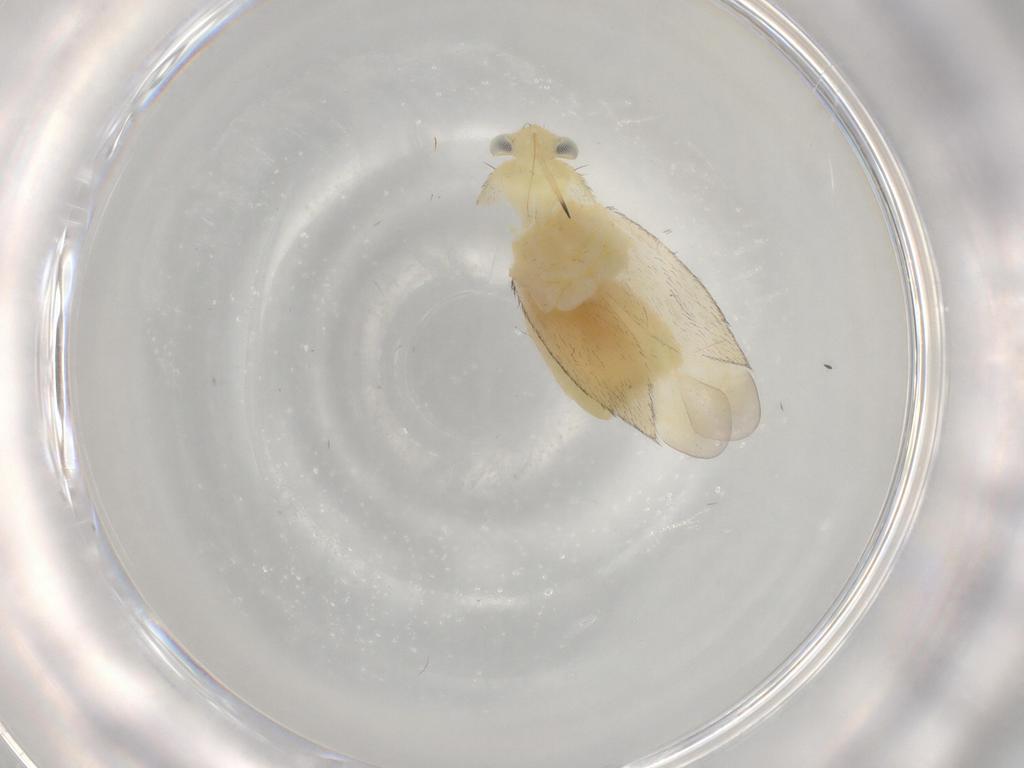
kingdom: Animalia
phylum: Arthropoda
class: Insecta
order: Hemiptera
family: Miridae
